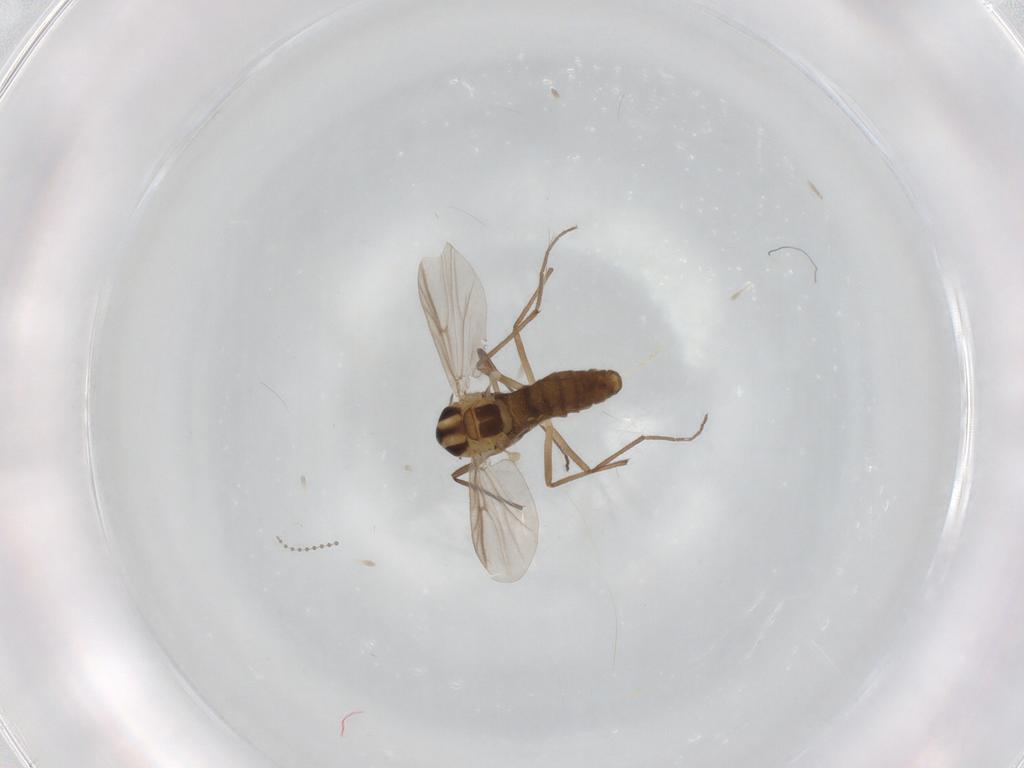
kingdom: Animalia
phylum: Arthropoda
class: Insecta
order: Diptera
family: Chironomidae
